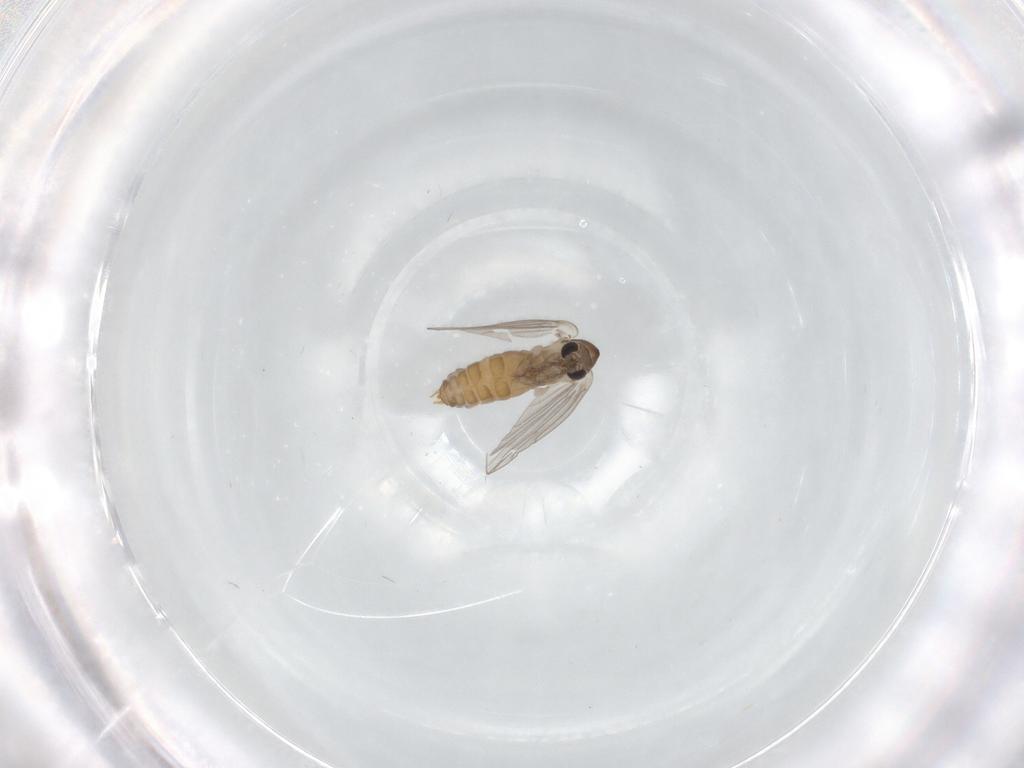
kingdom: Animalia
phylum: Arthropoda
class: Insecta
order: Diptera
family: Psychodidae
